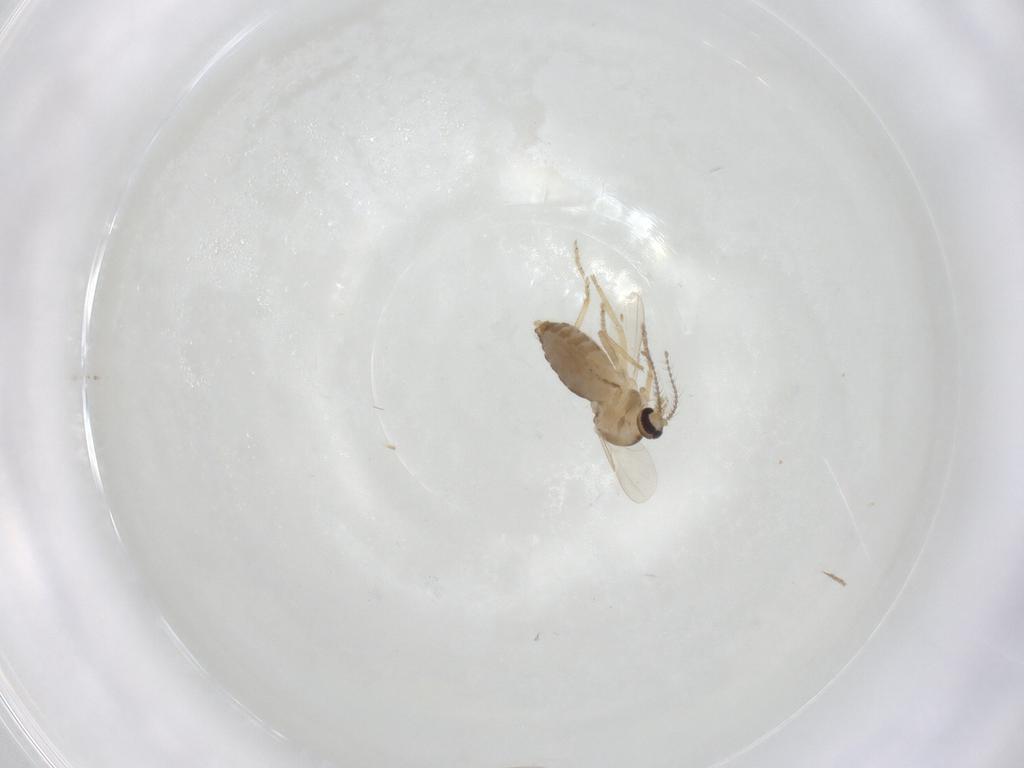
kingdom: Animalia
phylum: Arthropoda
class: Insecta
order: Diptera
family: Ceratopogonidae
